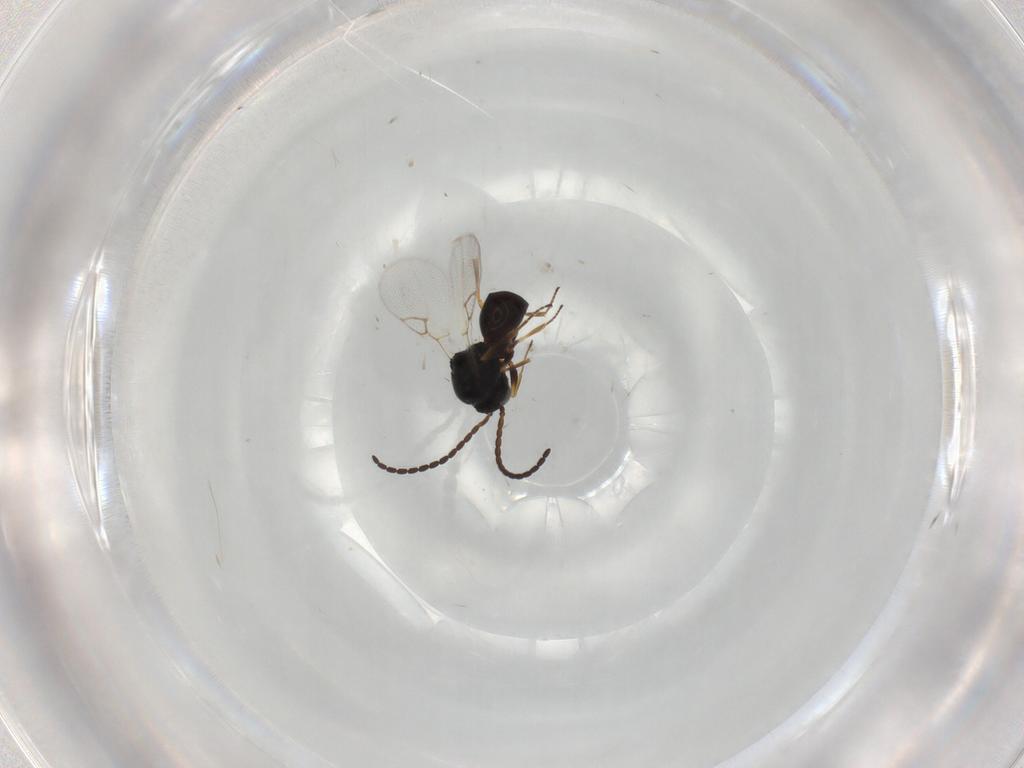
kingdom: Animalia
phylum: Arthropoda
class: Insecta
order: Hymenoptera
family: Figitidae
